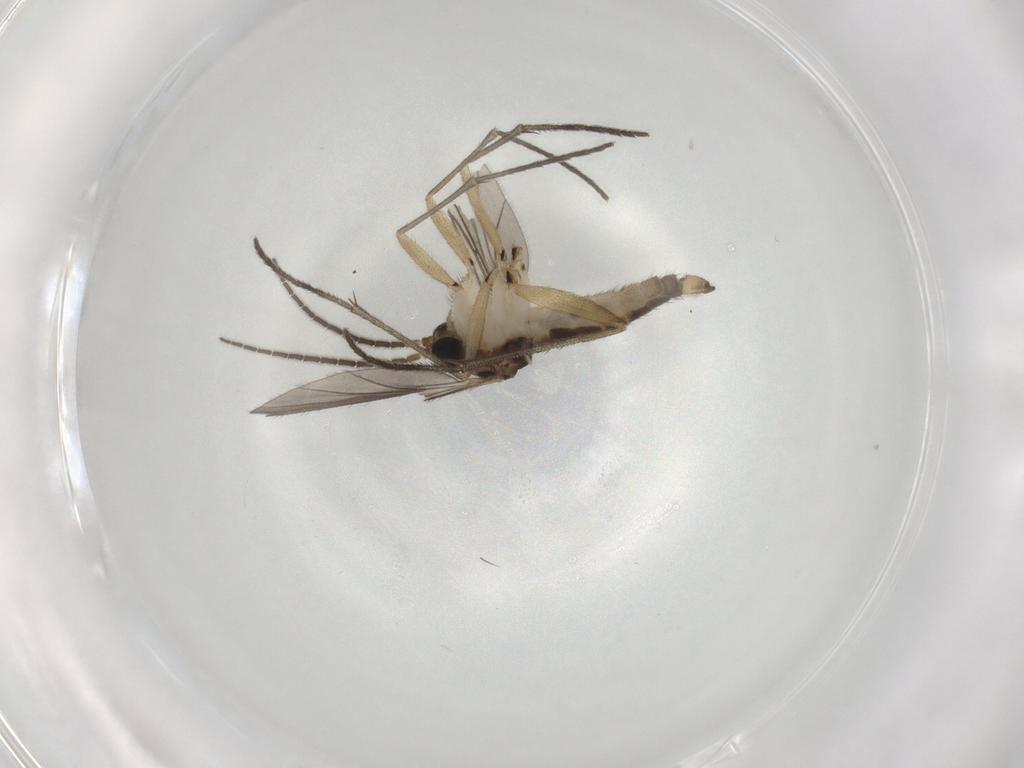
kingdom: Animalia
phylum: Arthropoda
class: Insecta
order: Diptera
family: Sciaridae
